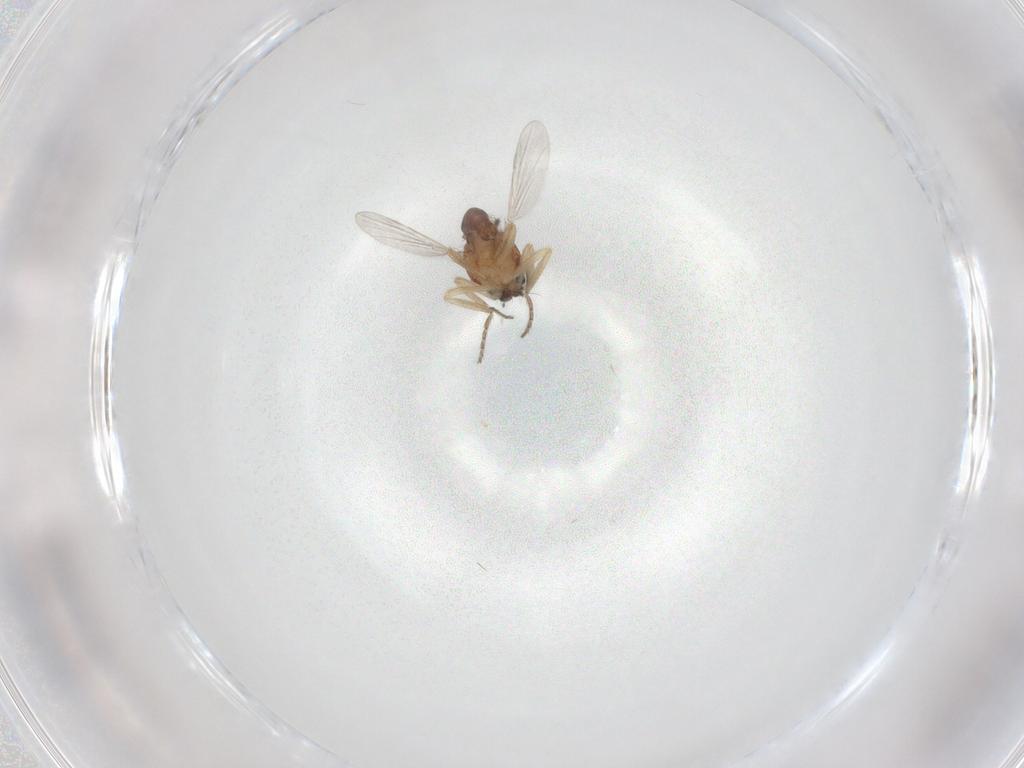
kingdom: Animalia
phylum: Arthropoda
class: Insecta
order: Diptera
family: Ceratopogonidae
